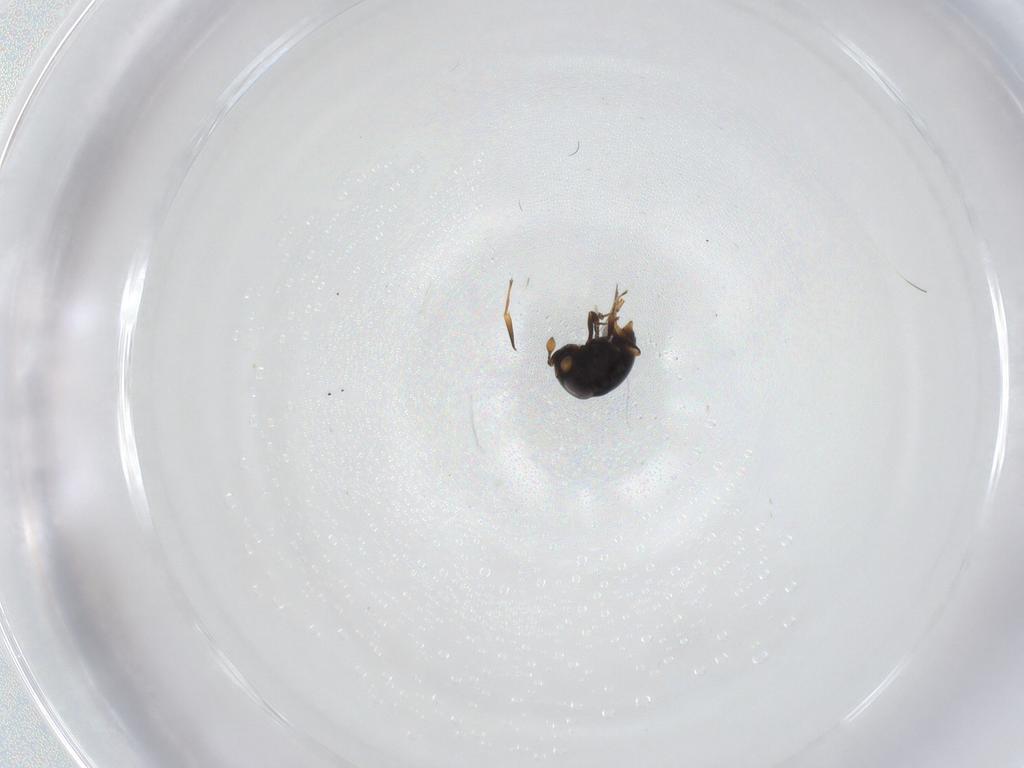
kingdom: Animalia
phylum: Arthropoda
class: Insecta
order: Hymenoptera
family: Scelionidae
